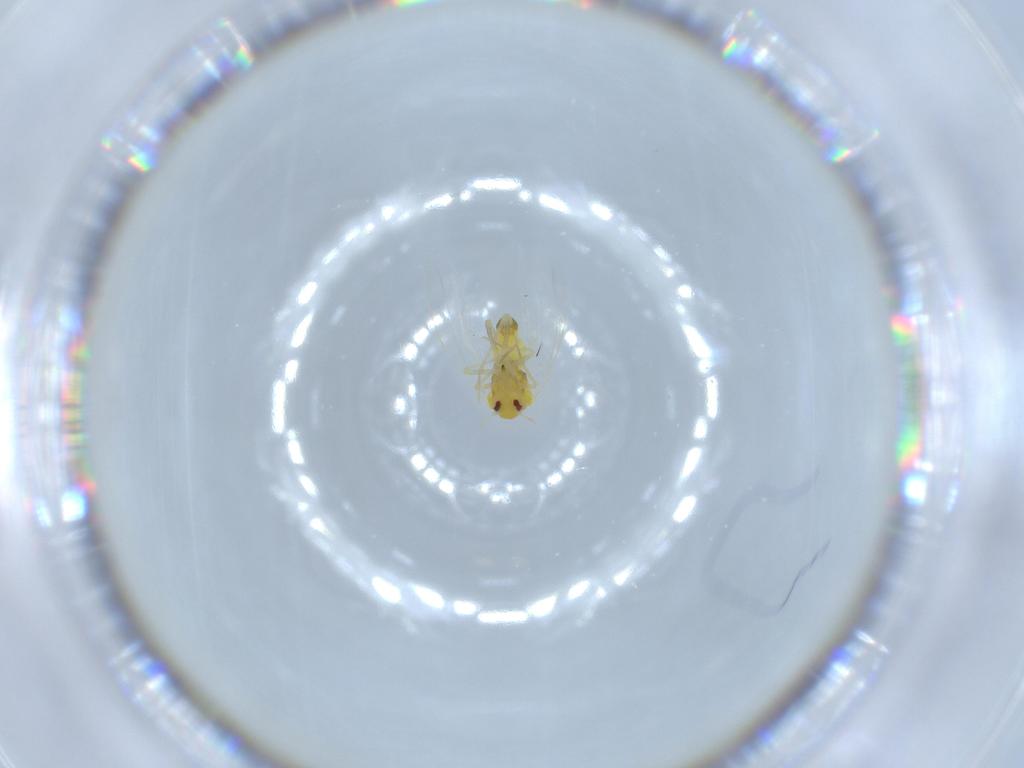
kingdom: Animalia
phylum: Arthropoda
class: Insecta
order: Hemiptera
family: Aleyrodidae
